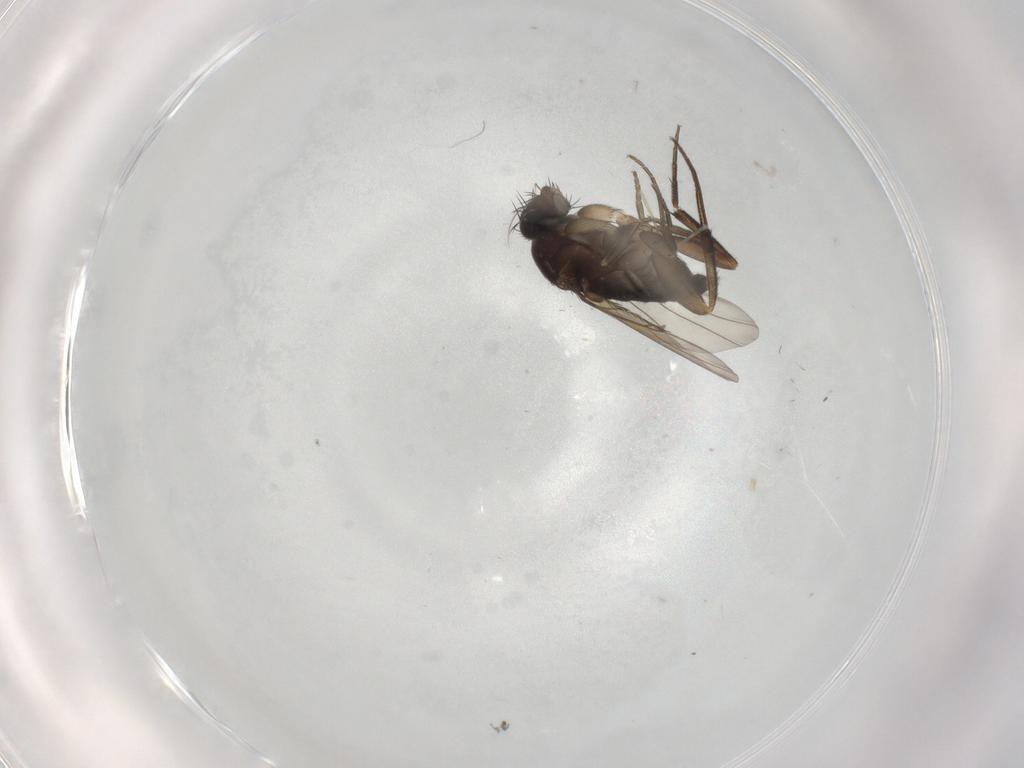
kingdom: Animalia
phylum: Arthropoda
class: Insecta
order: Diptera
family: Phoridae
